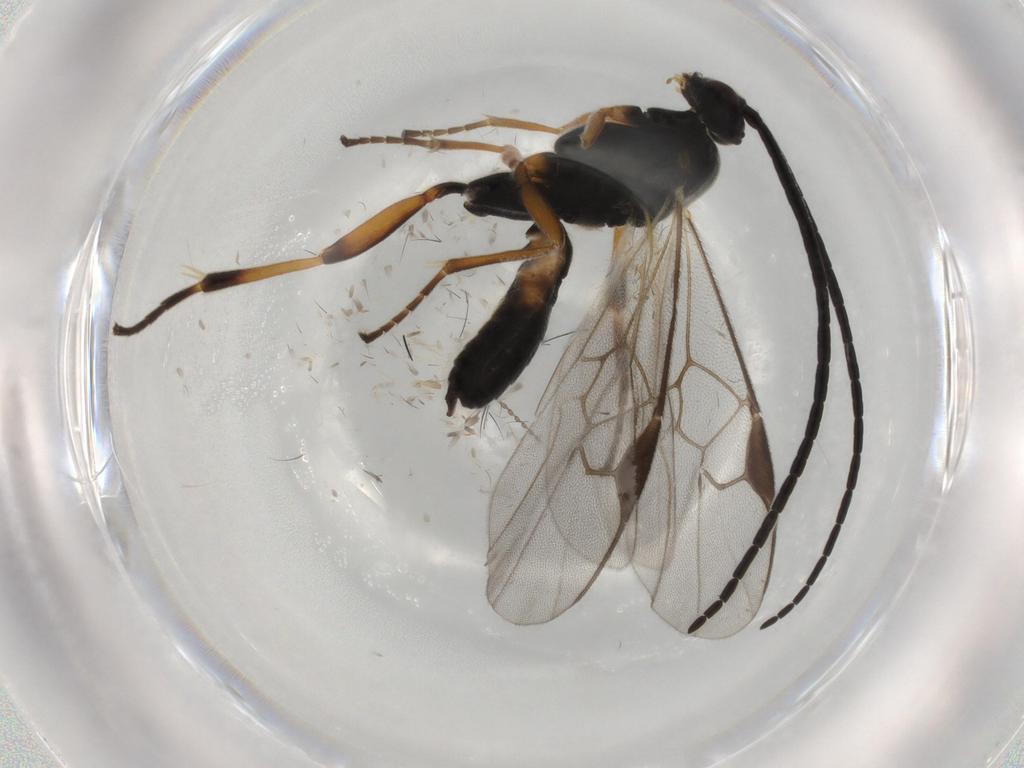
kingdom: Animalia
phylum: Arthropoda
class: Insecta
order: Hymenoptera
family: Braconidae
